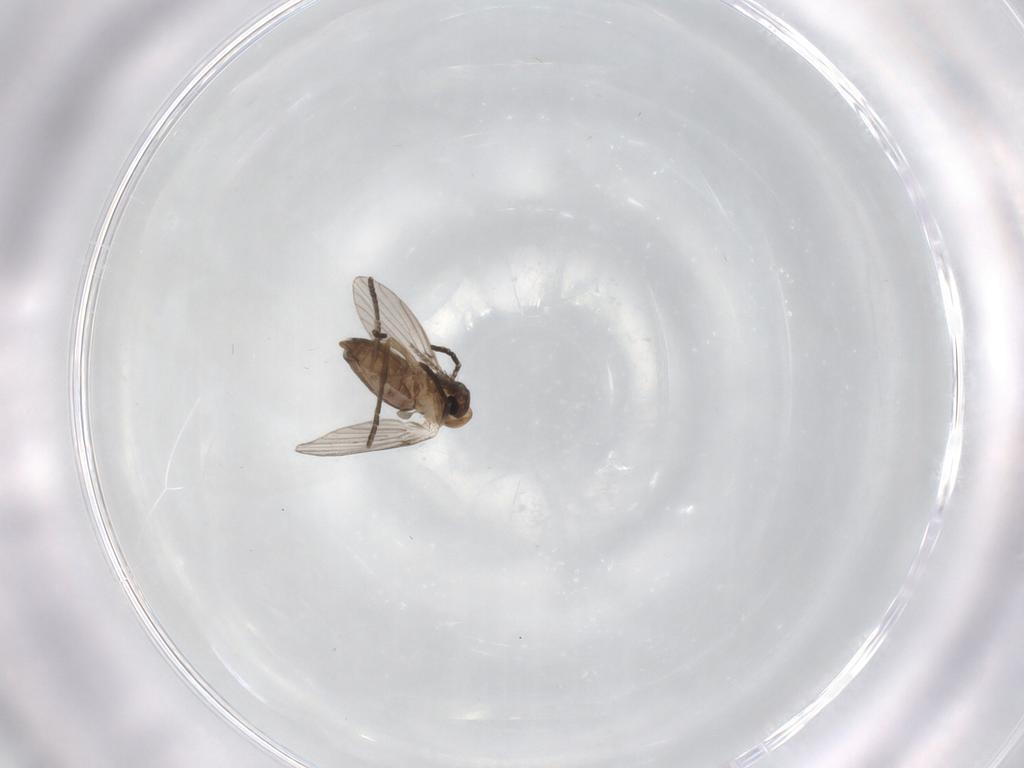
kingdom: Animalia
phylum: Arthropoda
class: Insecta
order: Diptera
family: Psychodidae
